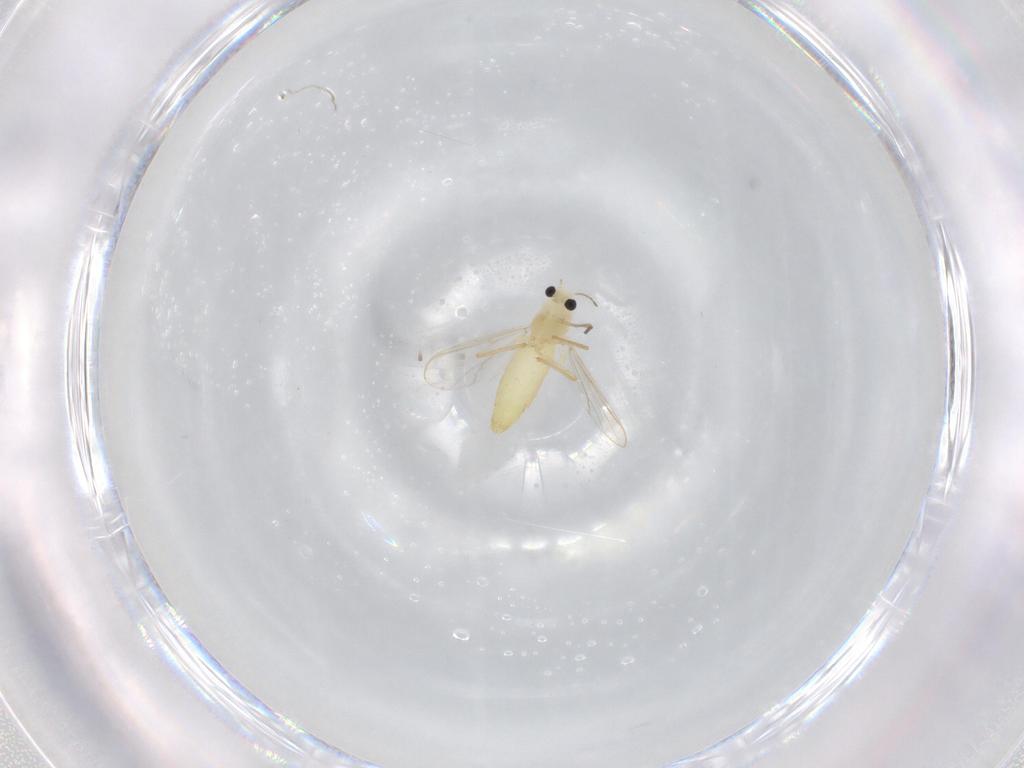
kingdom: Animalia
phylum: Arthropoda
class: Insecta
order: Diptera
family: Chironomidae
